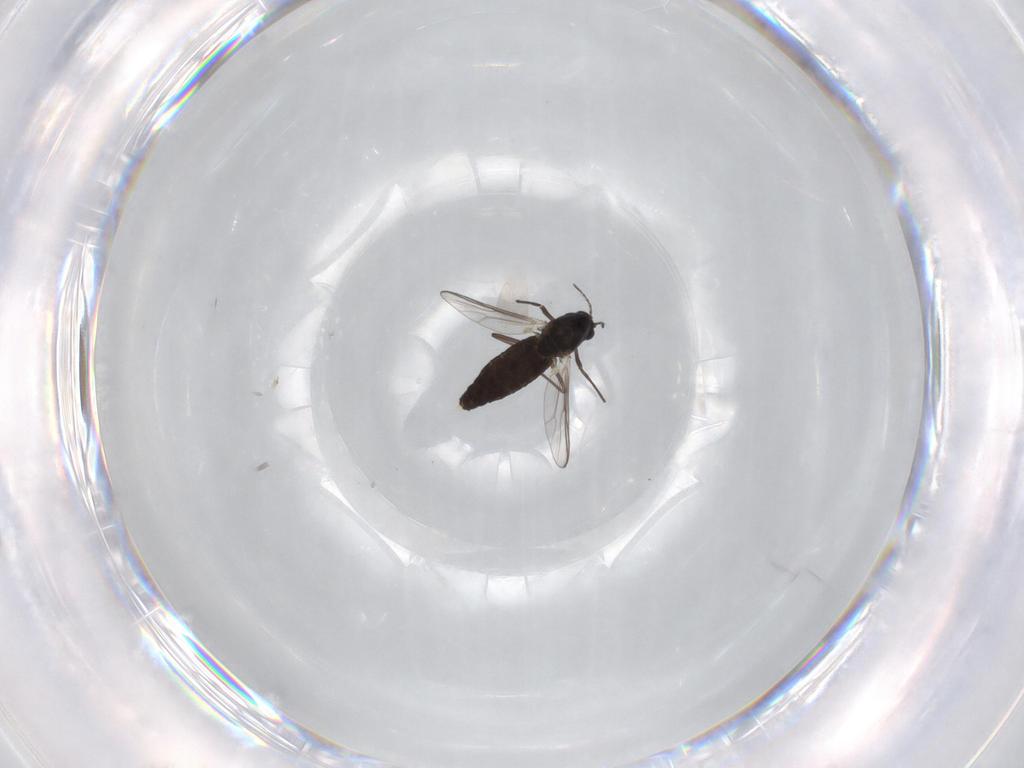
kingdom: Animalia
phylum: Arthropoda
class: Insecta
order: Diptera
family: Chironomidae
